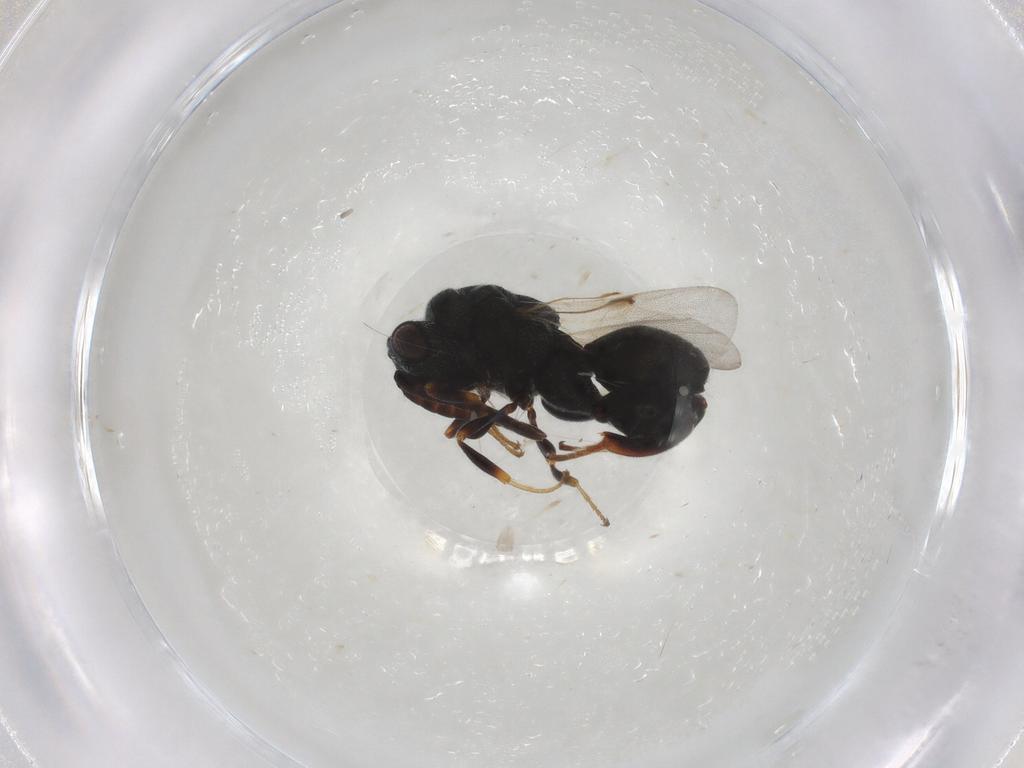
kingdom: Animalia
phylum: Arthropoda
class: Insecta
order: Hymenoptera
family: Chalcididae
